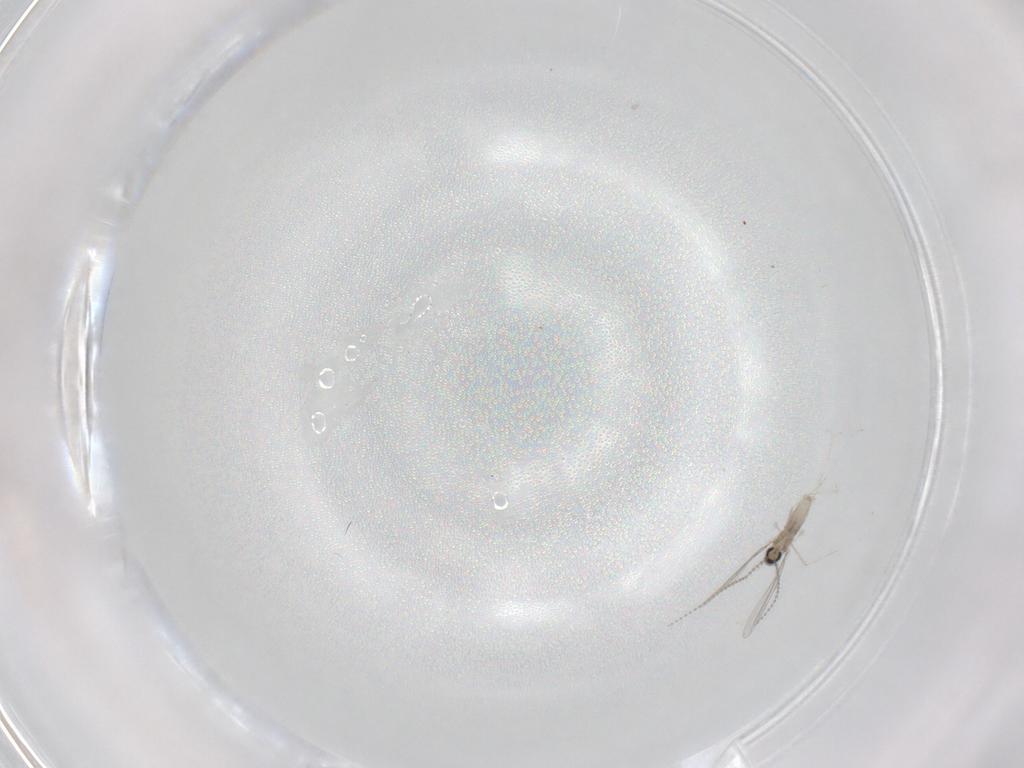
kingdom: Animalia
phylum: Arthropoda
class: Insecta
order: Diptera
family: Cecidomyiidae
